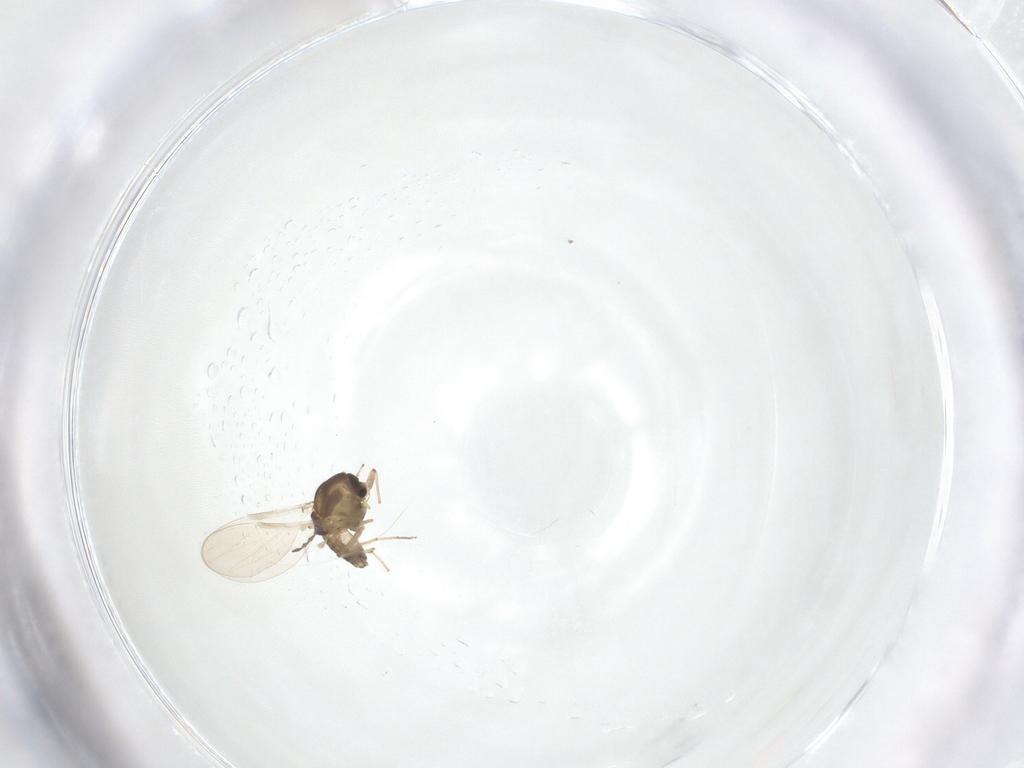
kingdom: Animalia
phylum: Arthropoda
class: Insecta
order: Diptera
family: Chironomidae
